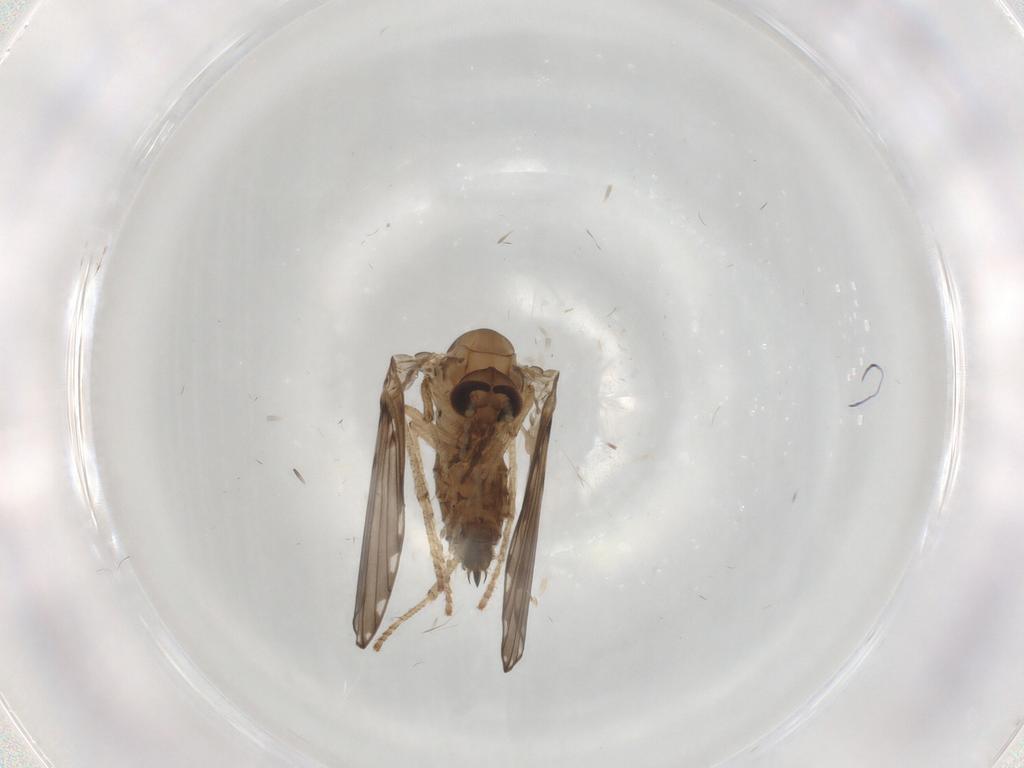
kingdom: Animalia
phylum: Arthropoda
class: Insecta
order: Diptera
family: Psychodidae
